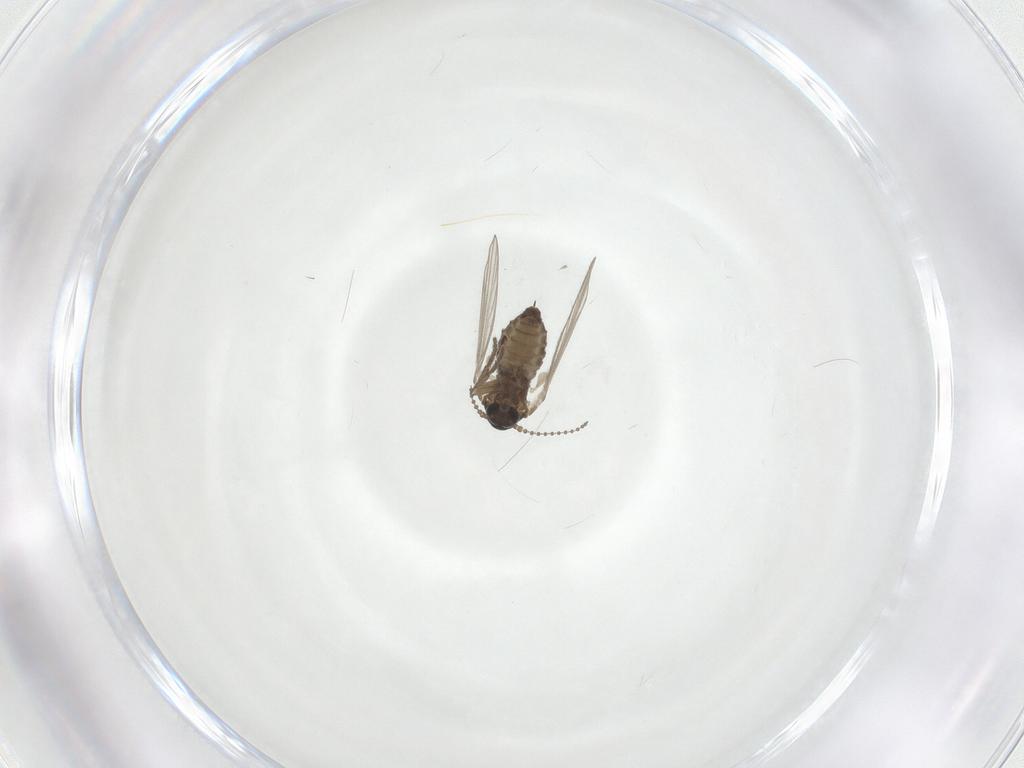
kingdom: Animalia
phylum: Arthropoda
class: Insecta
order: Diptera
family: Psychodidae
